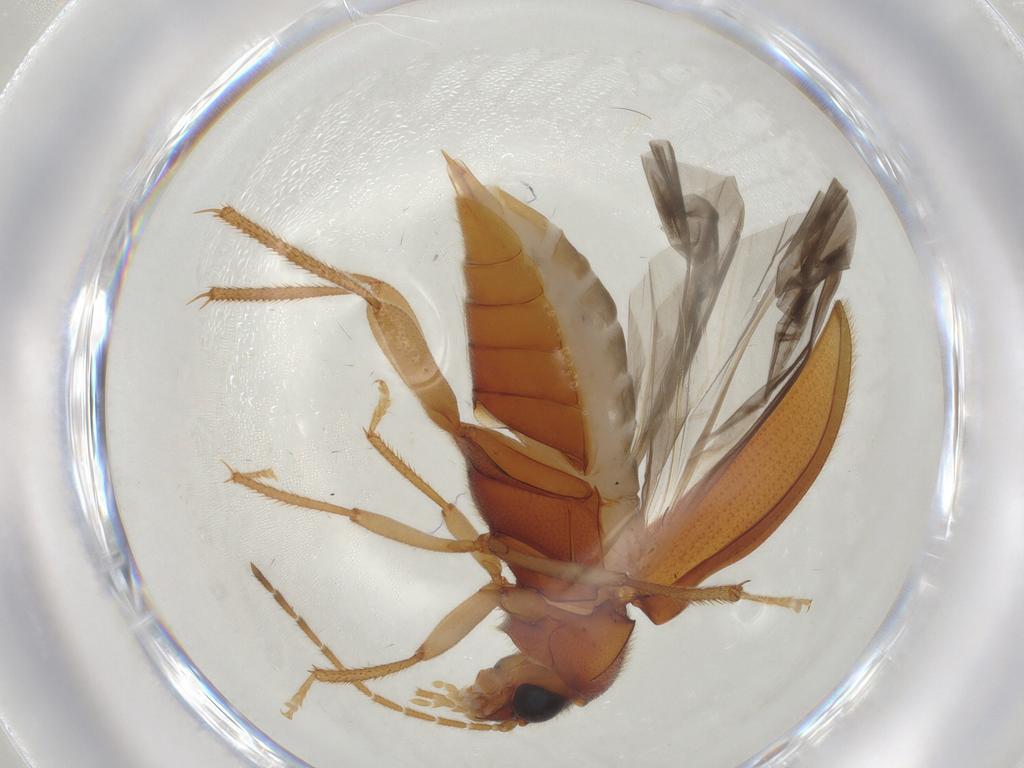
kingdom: Animalia
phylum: Arthropoda
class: Insecta
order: Coleoptera
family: Ptilodactylidae
